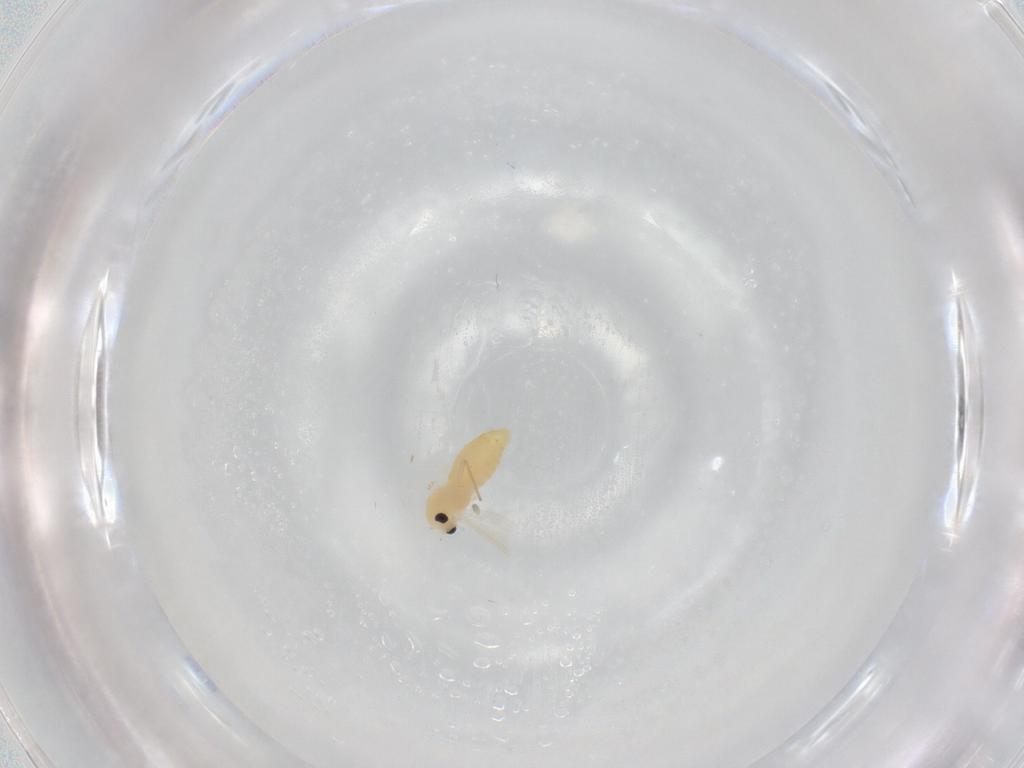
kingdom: Animalia
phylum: Arthropoda
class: Insecta
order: Diptera
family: Chironomidae
